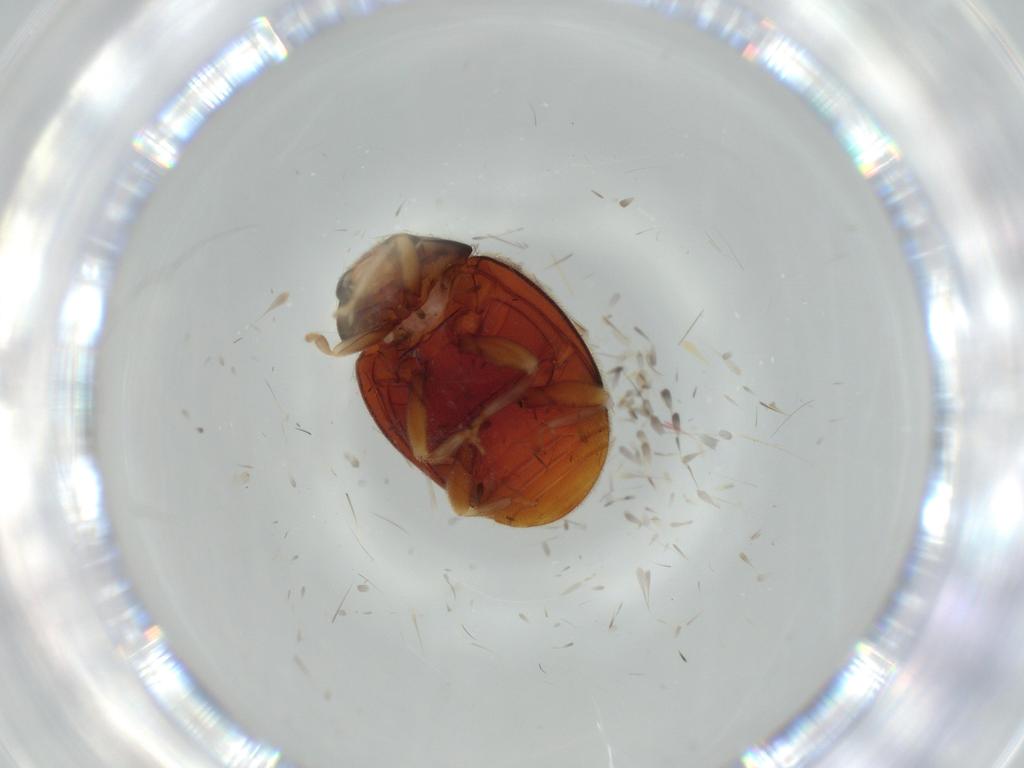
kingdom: Animalia
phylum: Arthropoda
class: Insecta
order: Coleoptera
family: Coccinellidae
